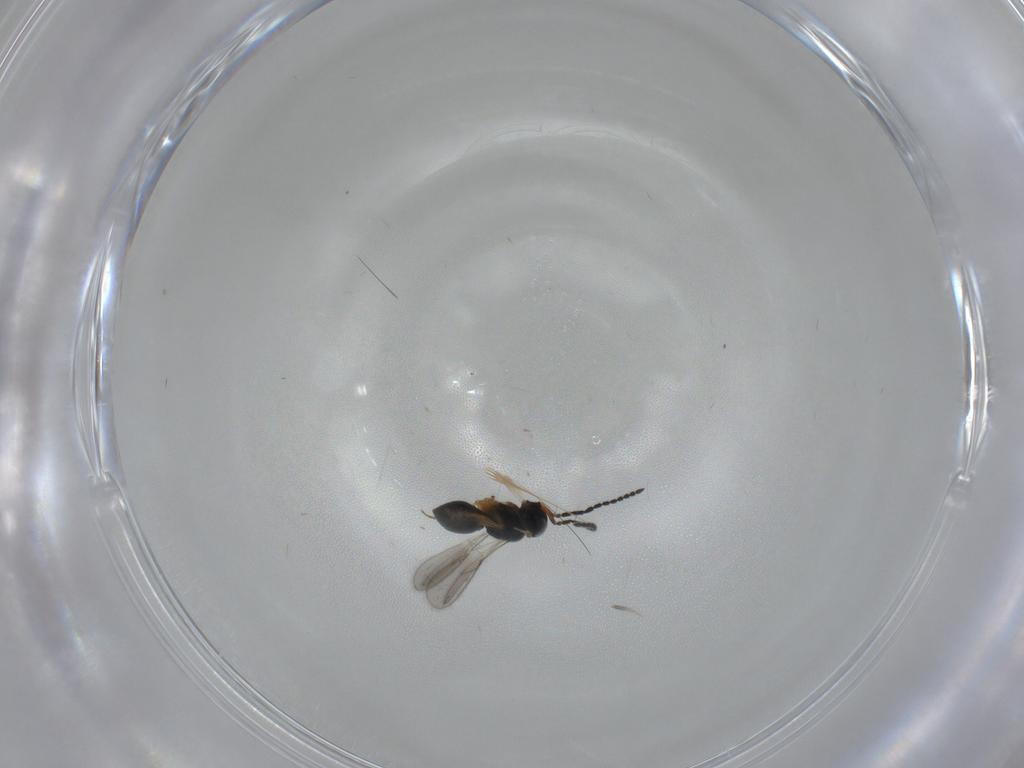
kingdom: Animalia
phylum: Arthropoda
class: Insecta
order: Hymenoptera
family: Scelionidae
